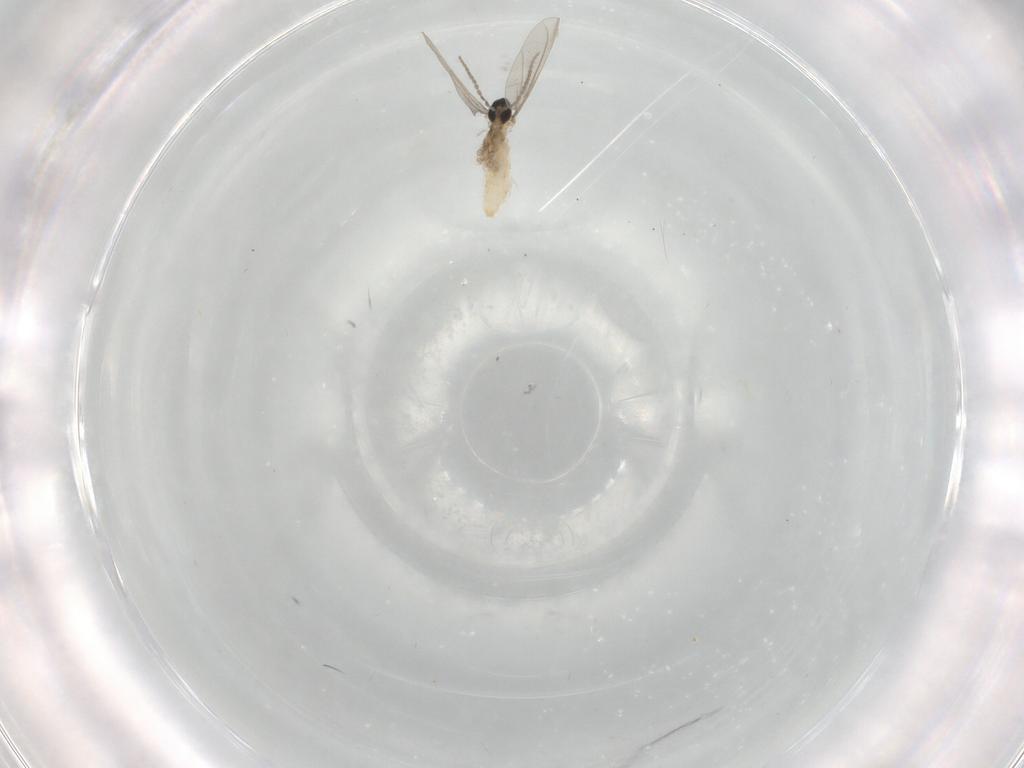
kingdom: Animalia
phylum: Arthropoda
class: Insecta
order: Diptera
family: Cecidomyiidae
